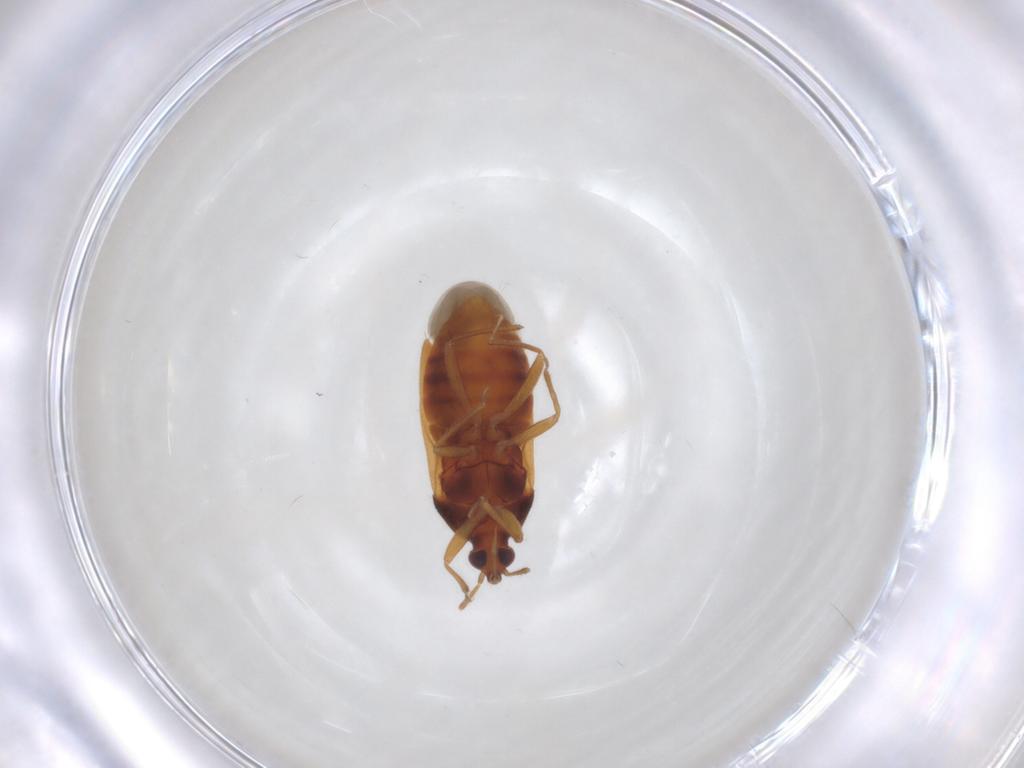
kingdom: Animalia
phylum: Arthropoda
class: Insecta
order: Hemiptera
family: Anthocoridae
